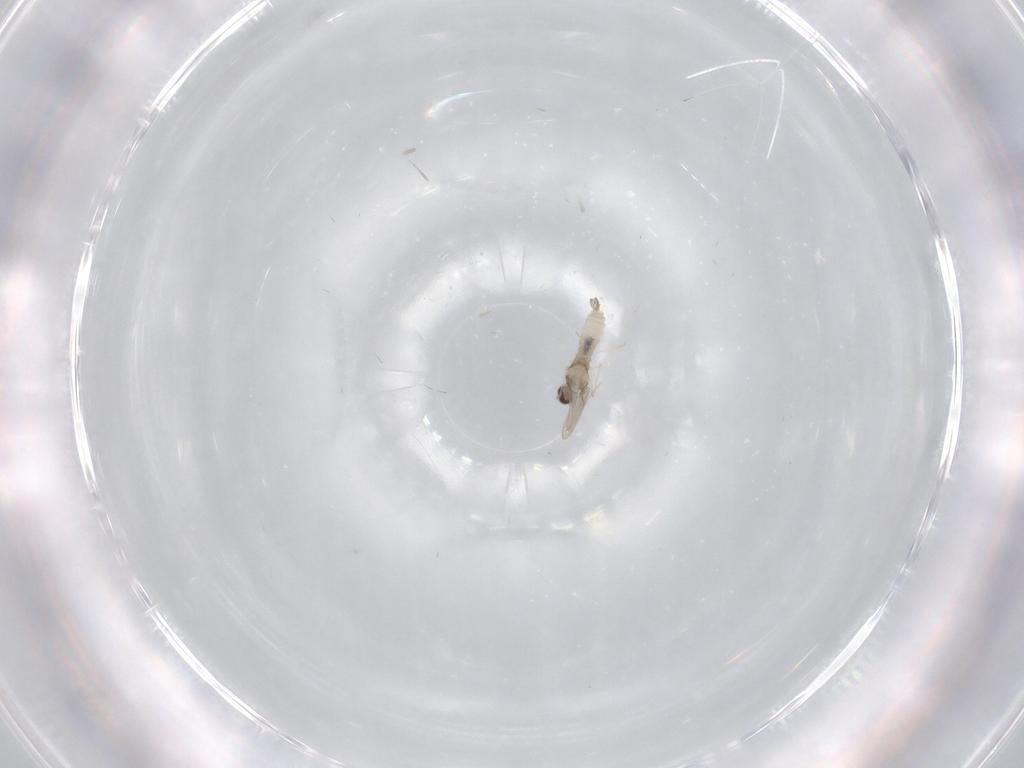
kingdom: Animalia
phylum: Arthropoda
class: Insecta
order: Diptera
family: Cecidomyiidae
